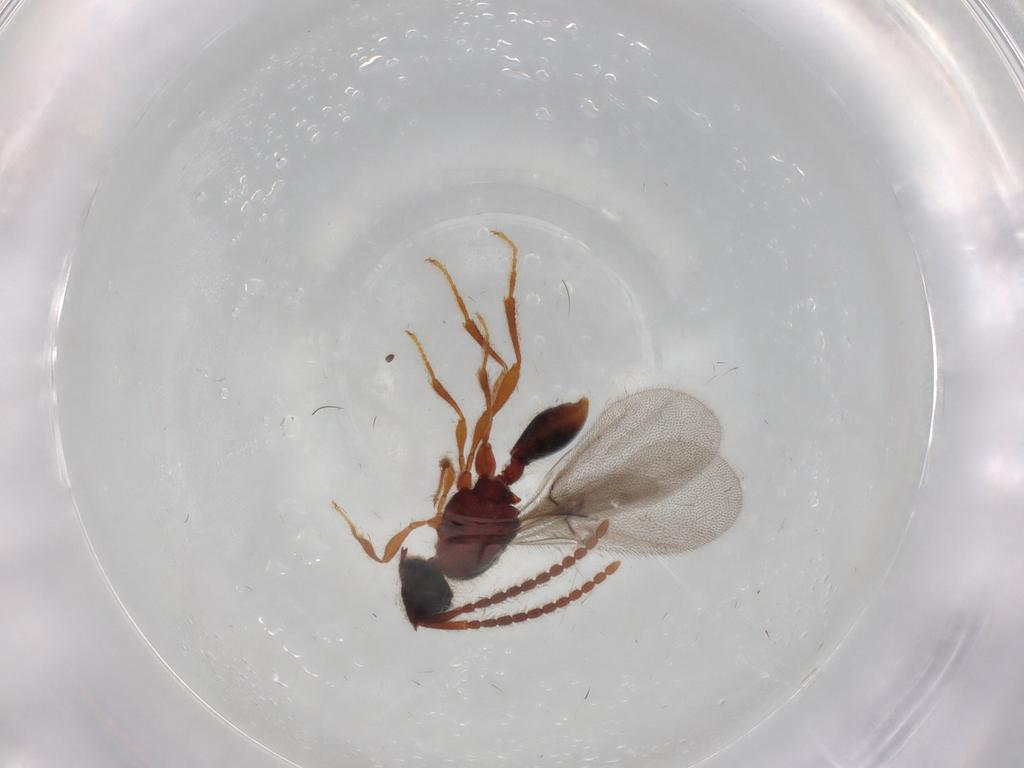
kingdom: Animalia
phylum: Arthropoda
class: Insecta
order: Hymenoptera
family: Diapriidae
